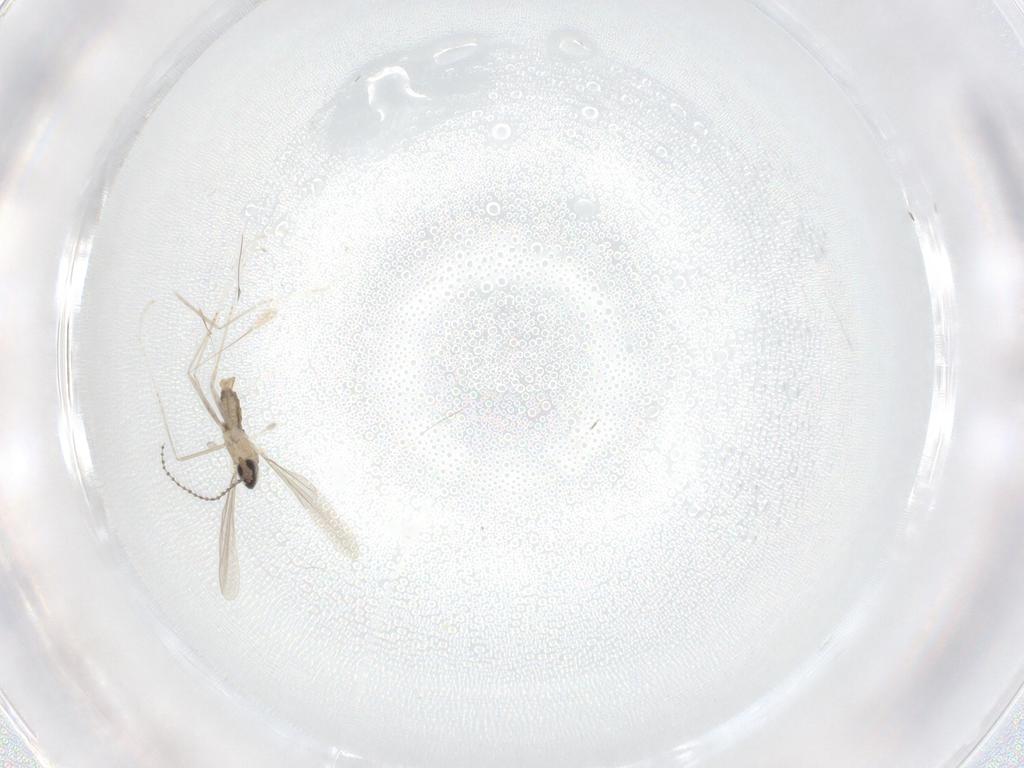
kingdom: Animalia
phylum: Arthropoda
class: Insecta
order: Diptera
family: Cecidomyiidae
